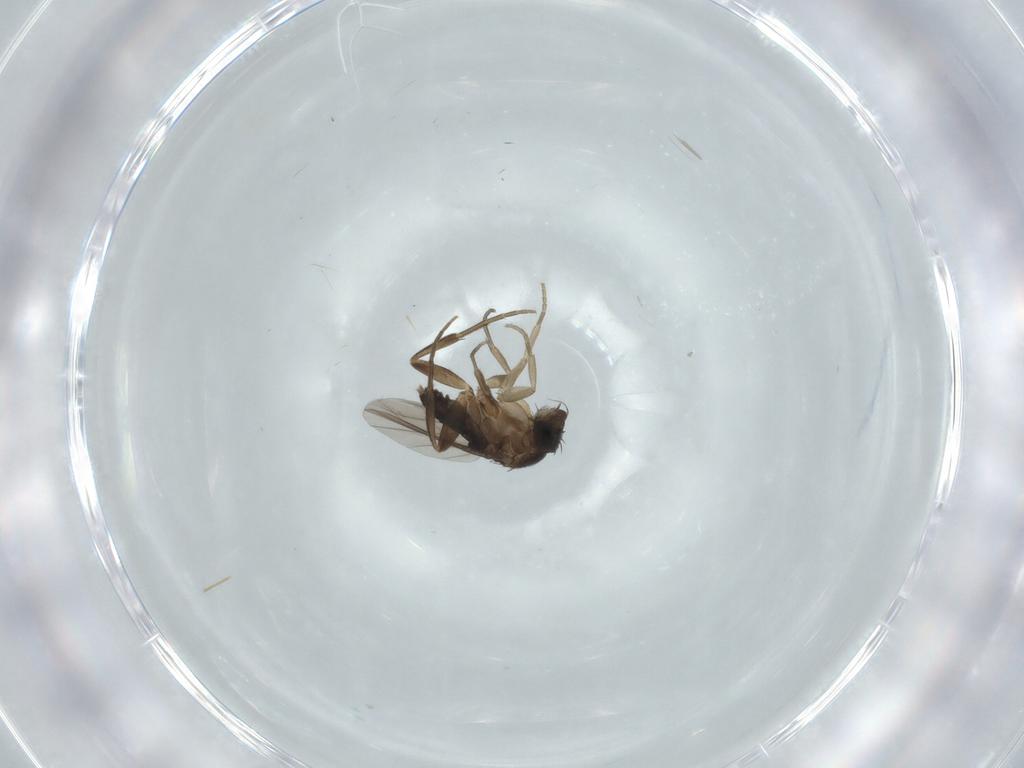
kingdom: Animalia
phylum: Arthropoda
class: Insecta
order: Diptera
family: Phoridae
